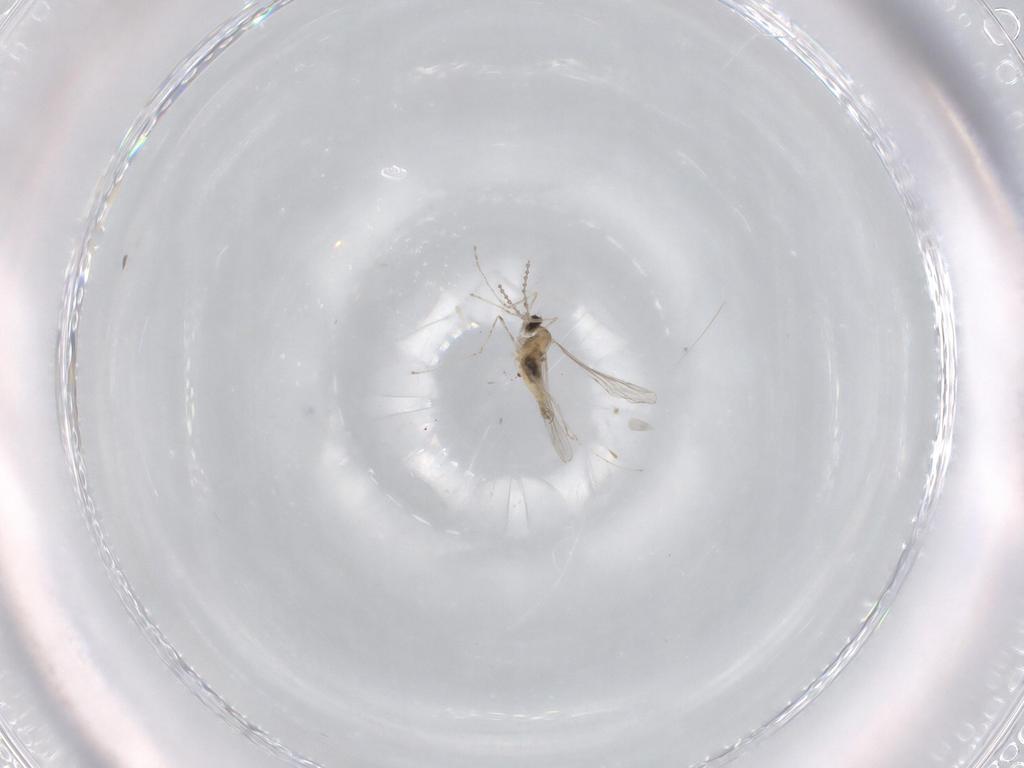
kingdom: Animalia
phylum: Arthropoda
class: Insecta
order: Diptera
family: Cecidomyiidae
